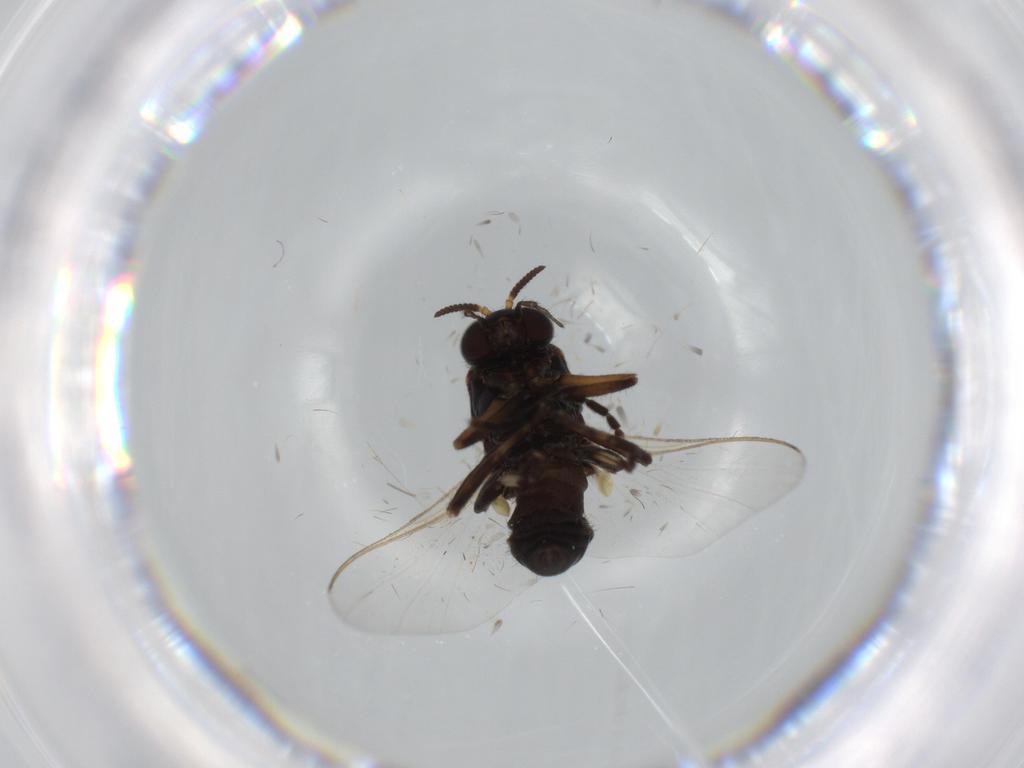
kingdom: Animalia
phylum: Arthropoda
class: Insecta
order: Diptera
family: Milichiidae
